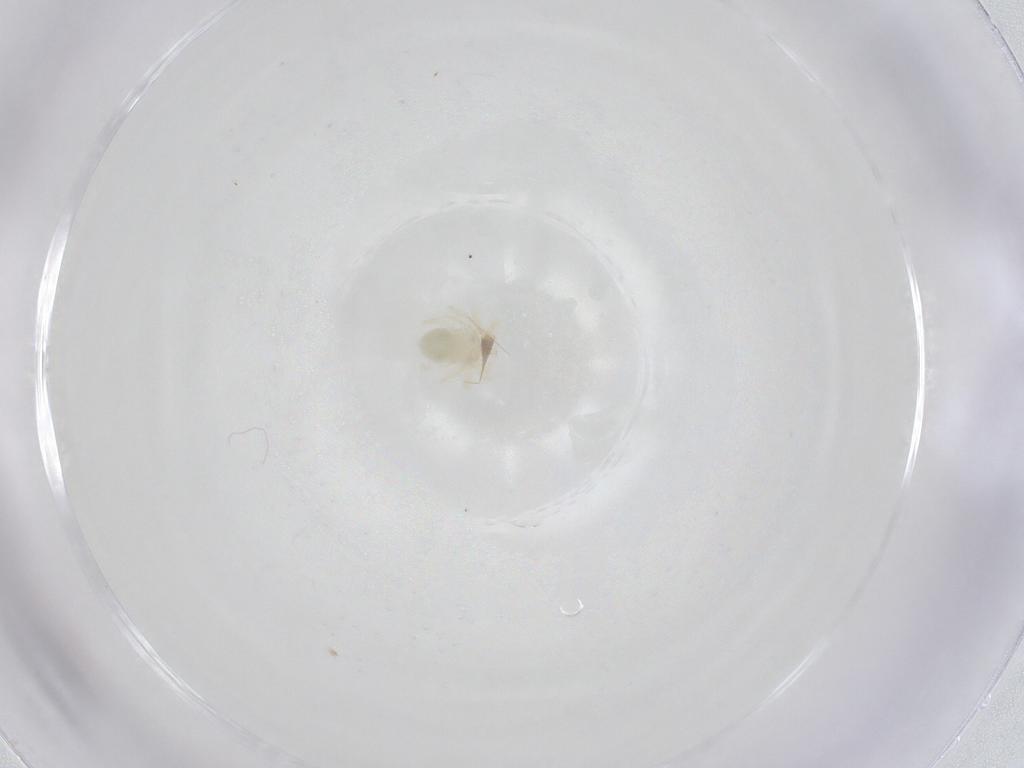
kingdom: Animalia
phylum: Arthropoda
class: Arachnida
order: Trombidiformes
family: Anystidae
